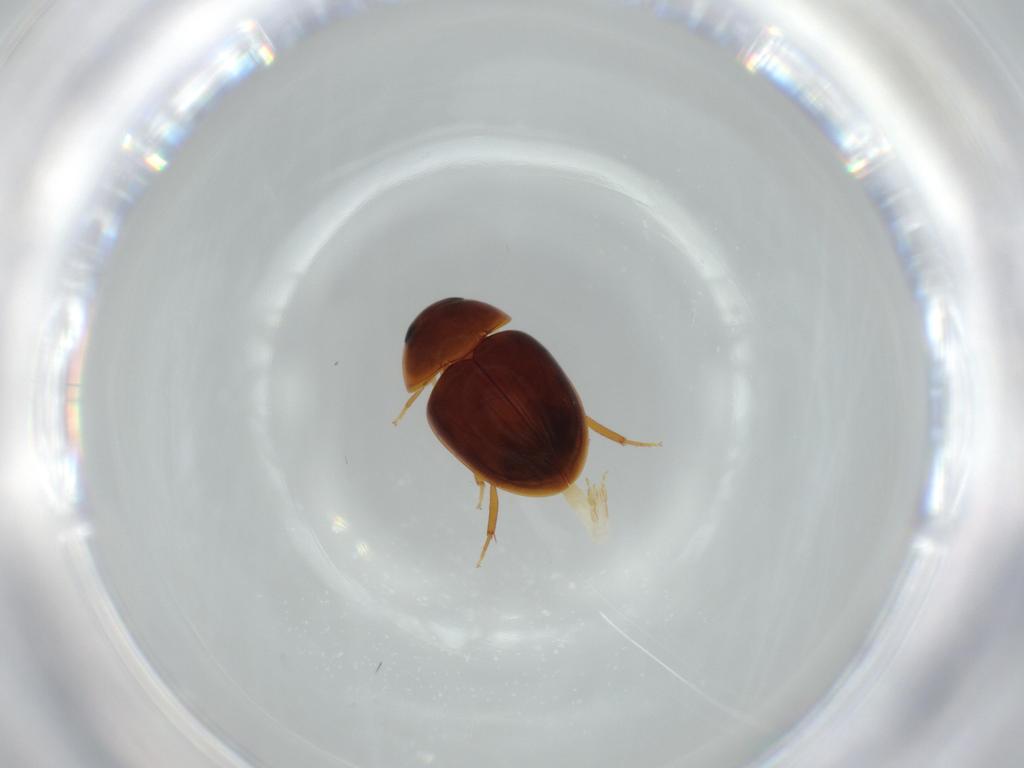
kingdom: Animalia
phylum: Arthropoda
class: Insecta
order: Coleoptera
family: Phalacridae
